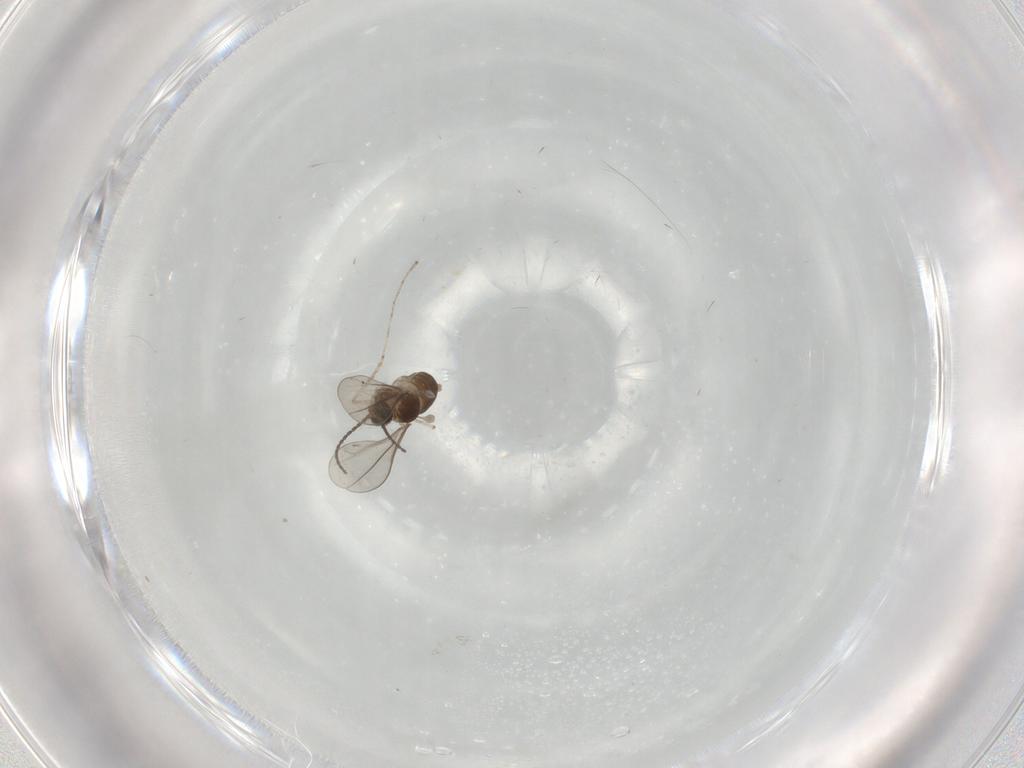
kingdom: Animalia
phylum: Arthropoda
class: Insecta
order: Diptera
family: Cecidomyiidae
